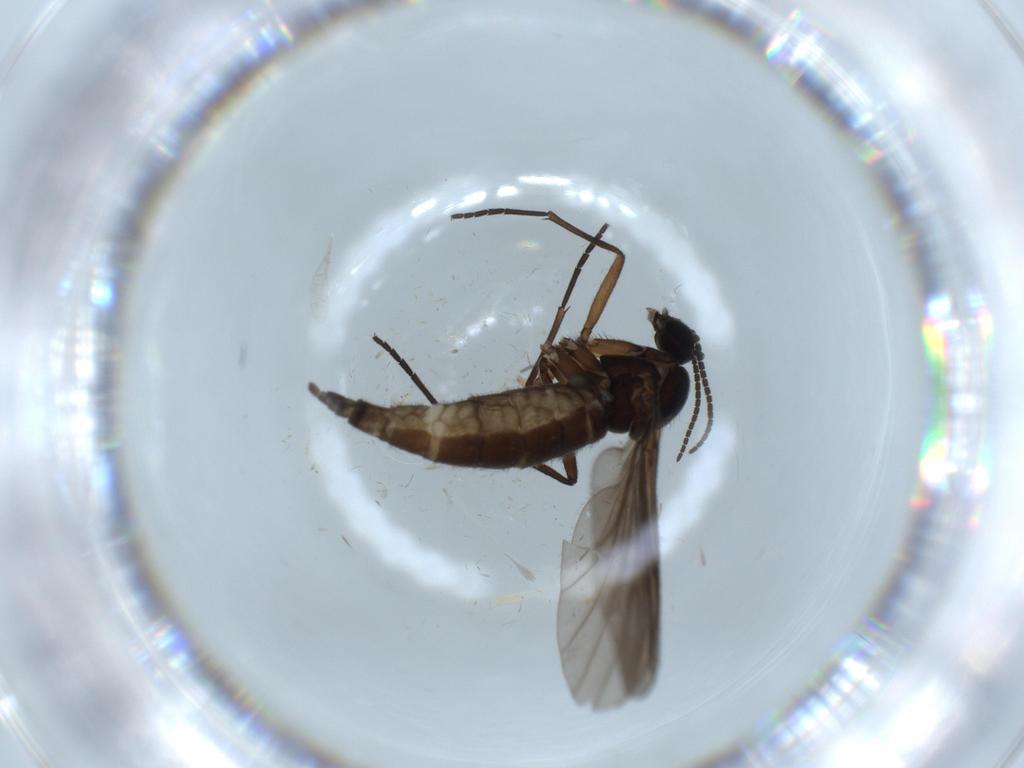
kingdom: Animalia
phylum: Arthropoda
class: Insecta
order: Diptera
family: Sciaridae
